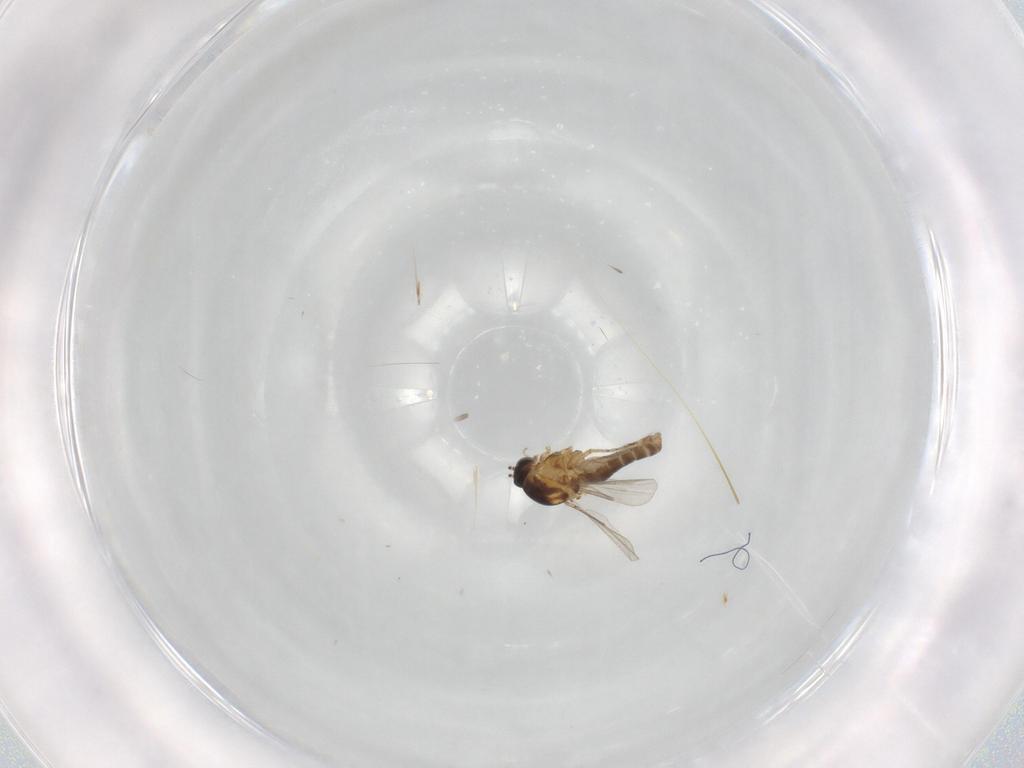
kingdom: Animalia
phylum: Arthropoda
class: Insecta
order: Diptera
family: Ceratopogonidae
